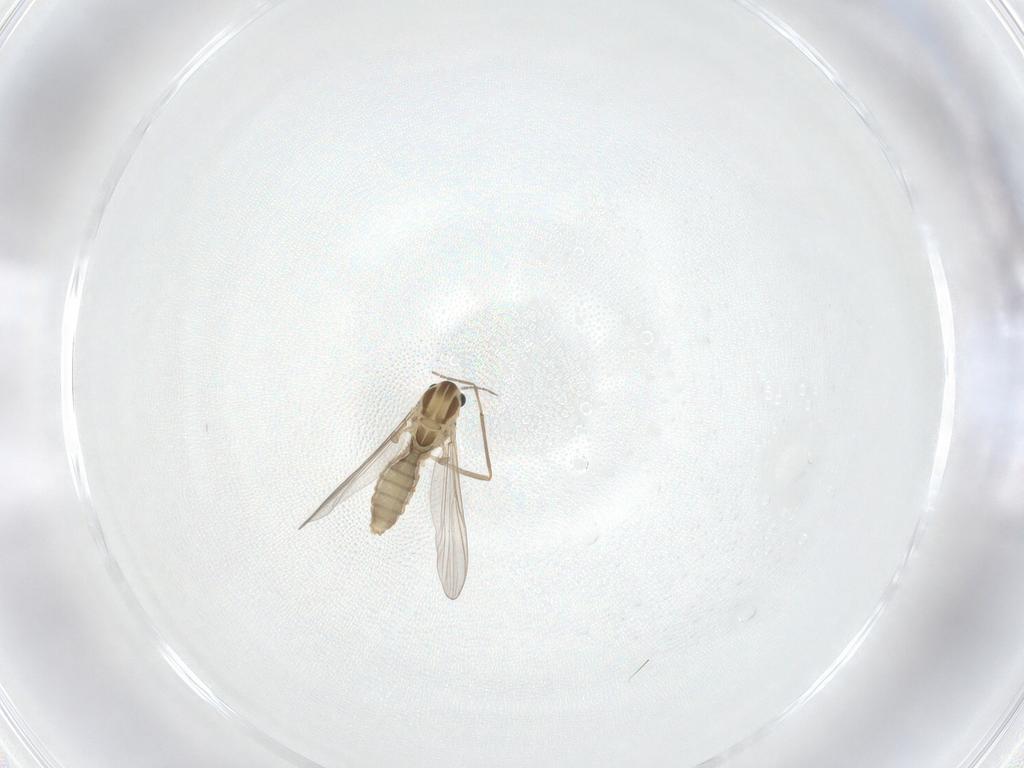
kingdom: Animalia
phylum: Arthropoda
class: Insecta
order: Diptera
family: Chironomidae
